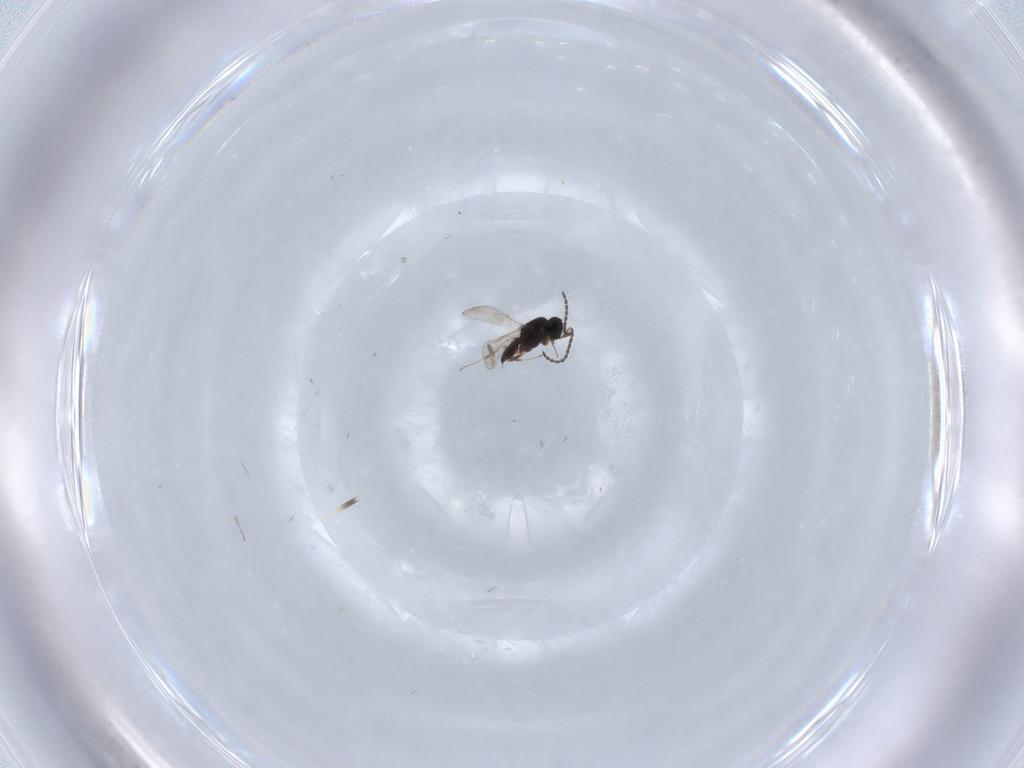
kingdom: Animalia
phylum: Arthropoda
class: Insecta
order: Hymenoptera
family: Scelionidae
